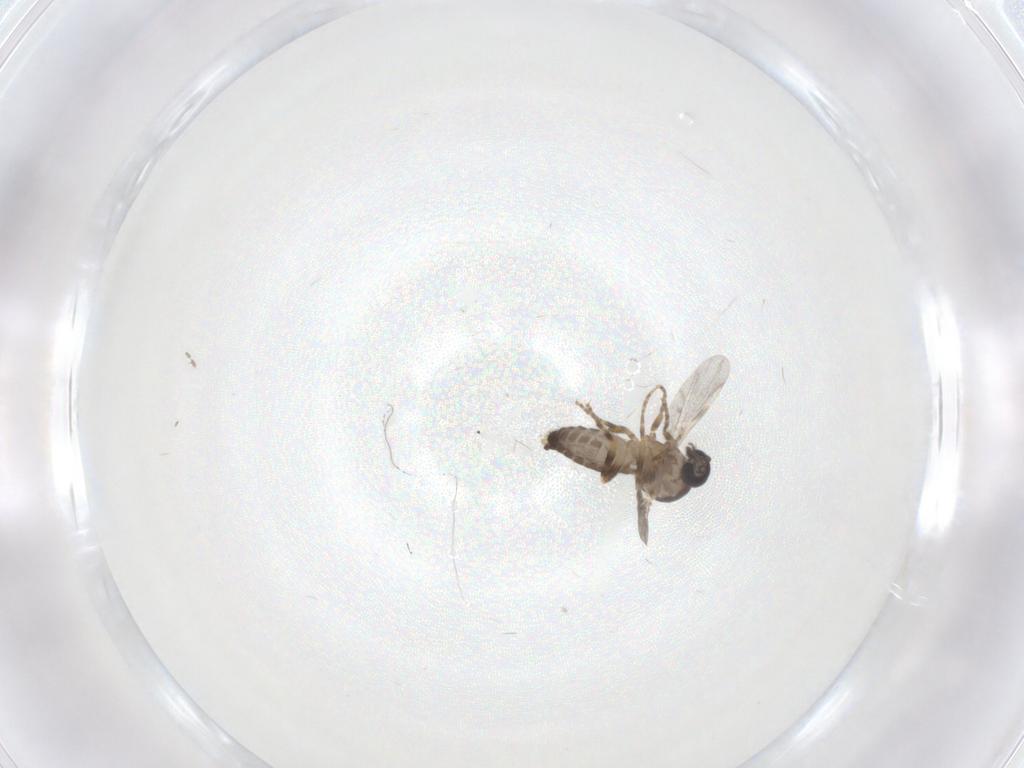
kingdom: Animalia
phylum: Arthropoda
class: Insecta
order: Diptera
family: Ceratopogonidae
